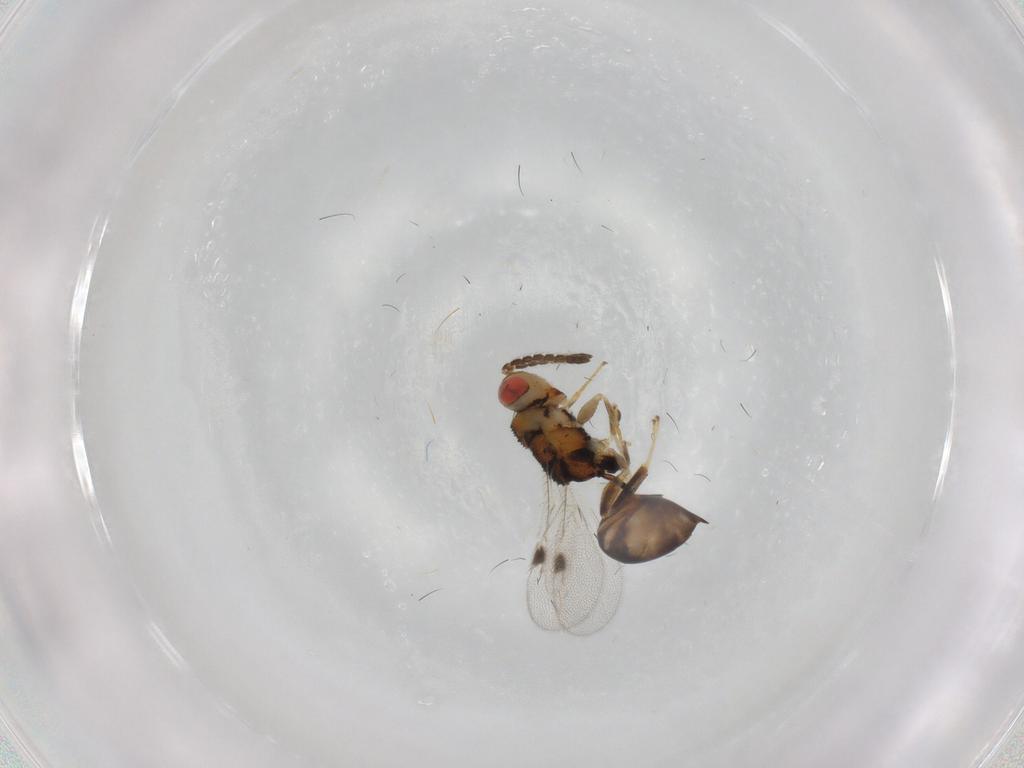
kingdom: Animalia
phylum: Arthropoda
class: Insecta
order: Hymenoptera
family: Eurytomidae
